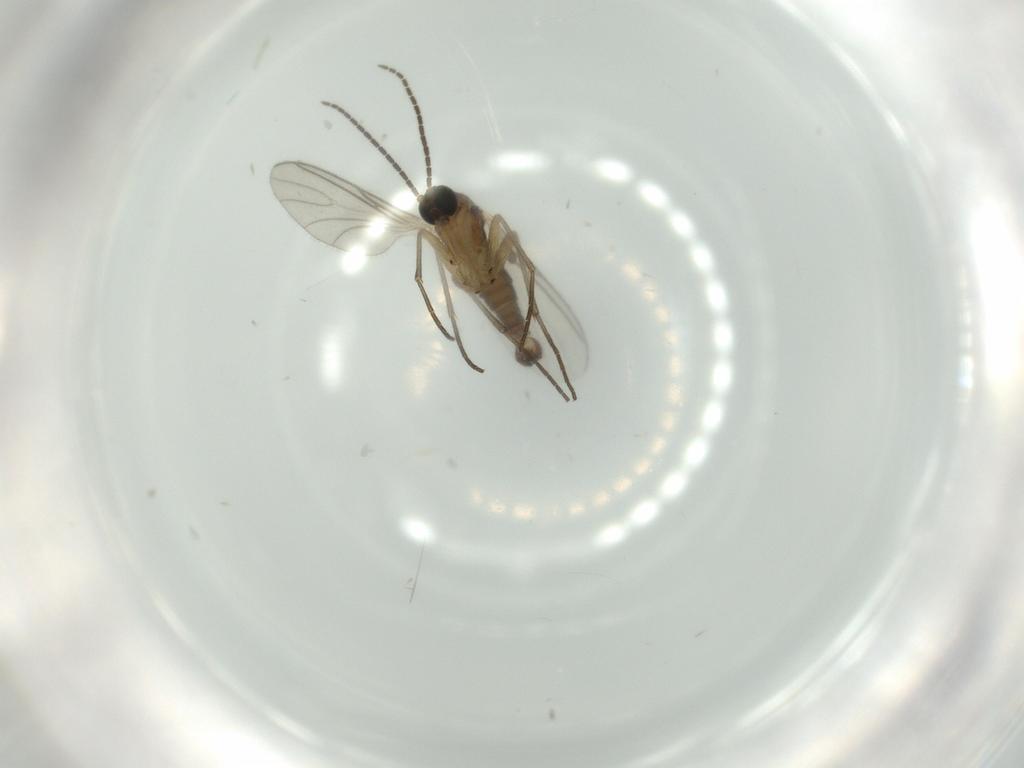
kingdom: Animalia
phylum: Arthropoda
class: Insecta
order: Diptera
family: Sciaridae
